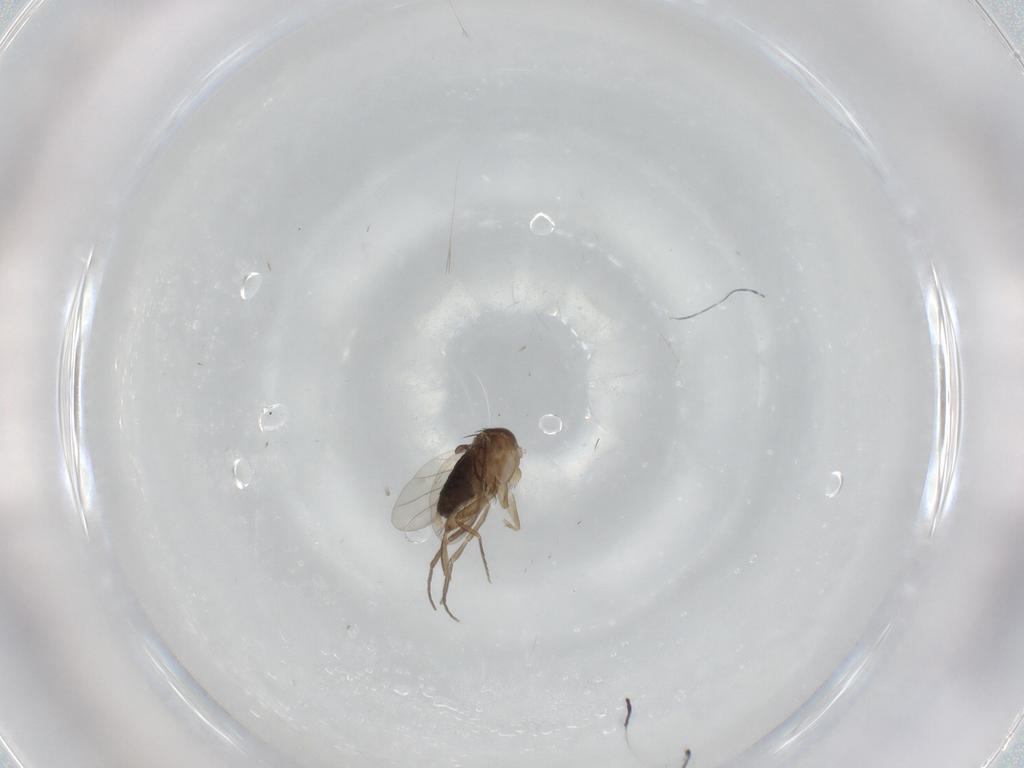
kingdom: Animalia
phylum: Arthropoda
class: Insecta
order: Diptera
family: Phoridae
